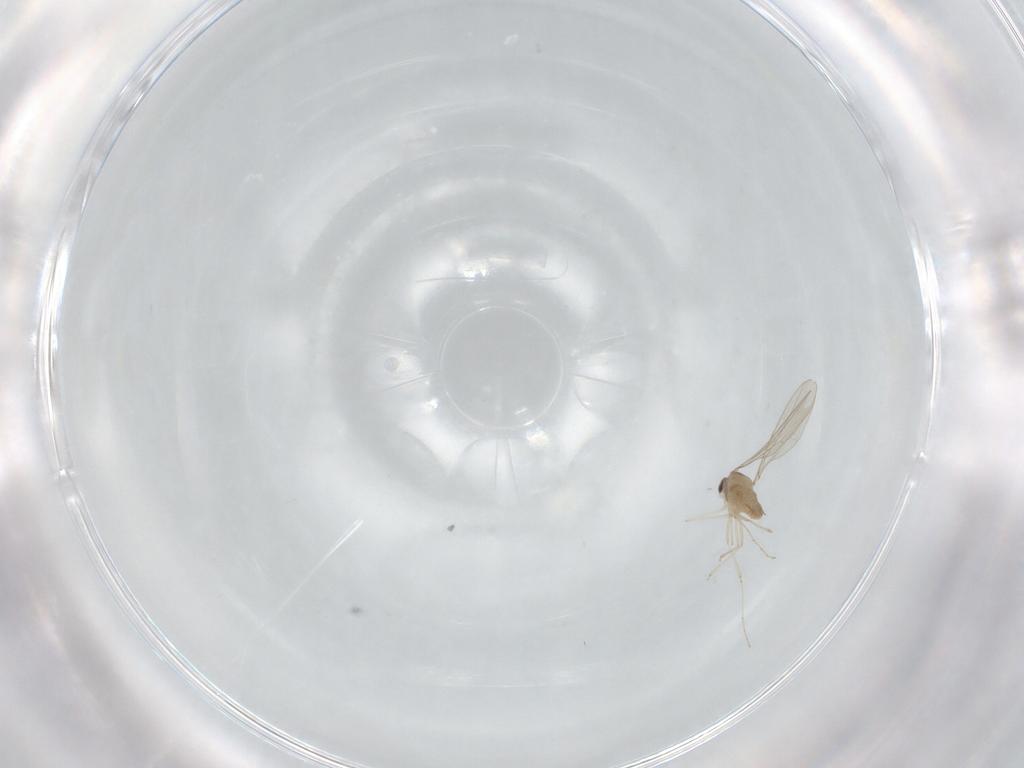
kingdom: Animalia
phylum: Arthropoda
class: Insecta
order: Diptera
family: Cecidomyiidae
